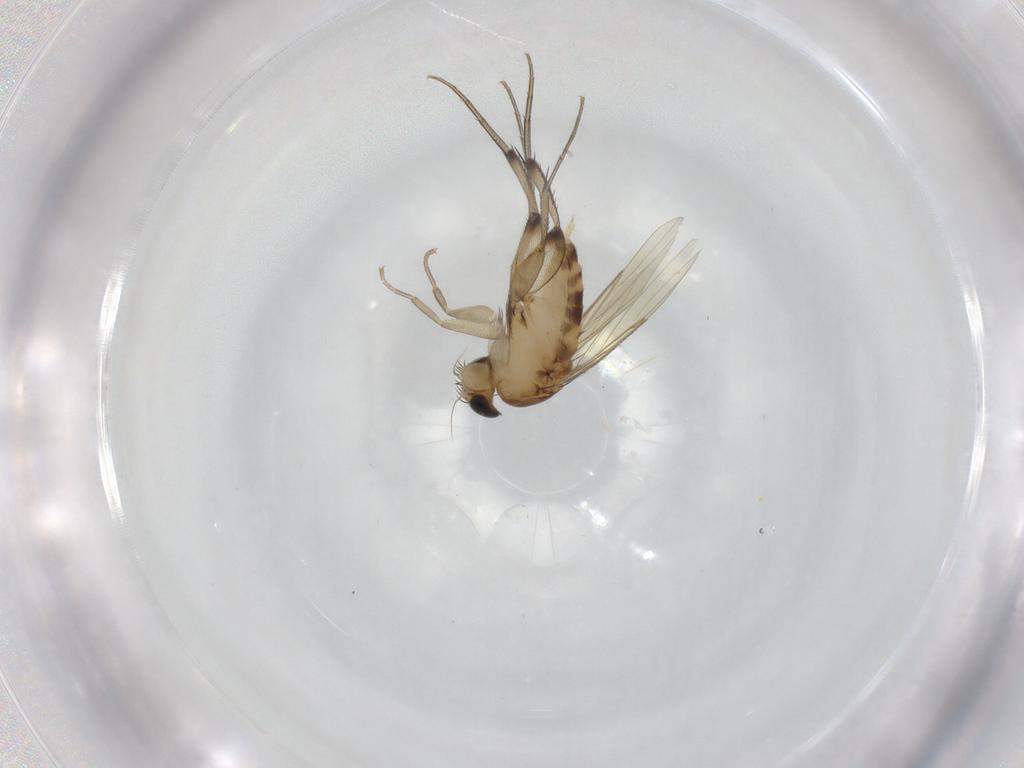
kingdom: Animalia
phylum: Arthropoda
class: Insecta
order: Diptera
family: Phoridae
